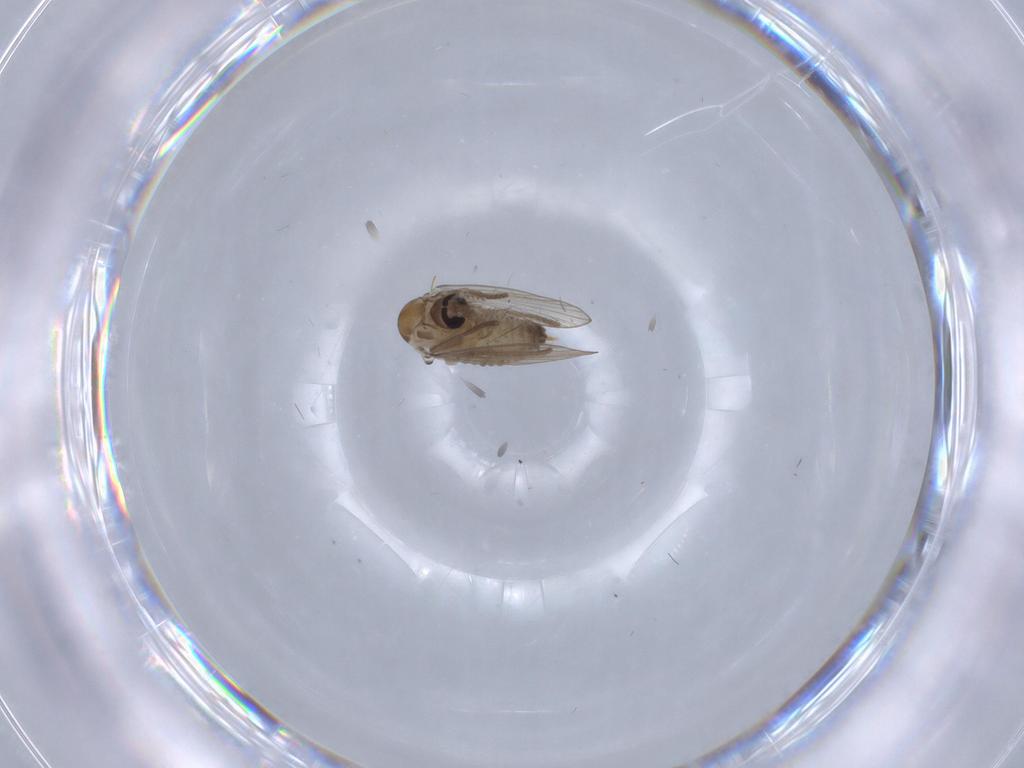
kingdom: Animalia
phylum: Arthropoda
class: Insecta
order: Diptera
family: Psychodidae
